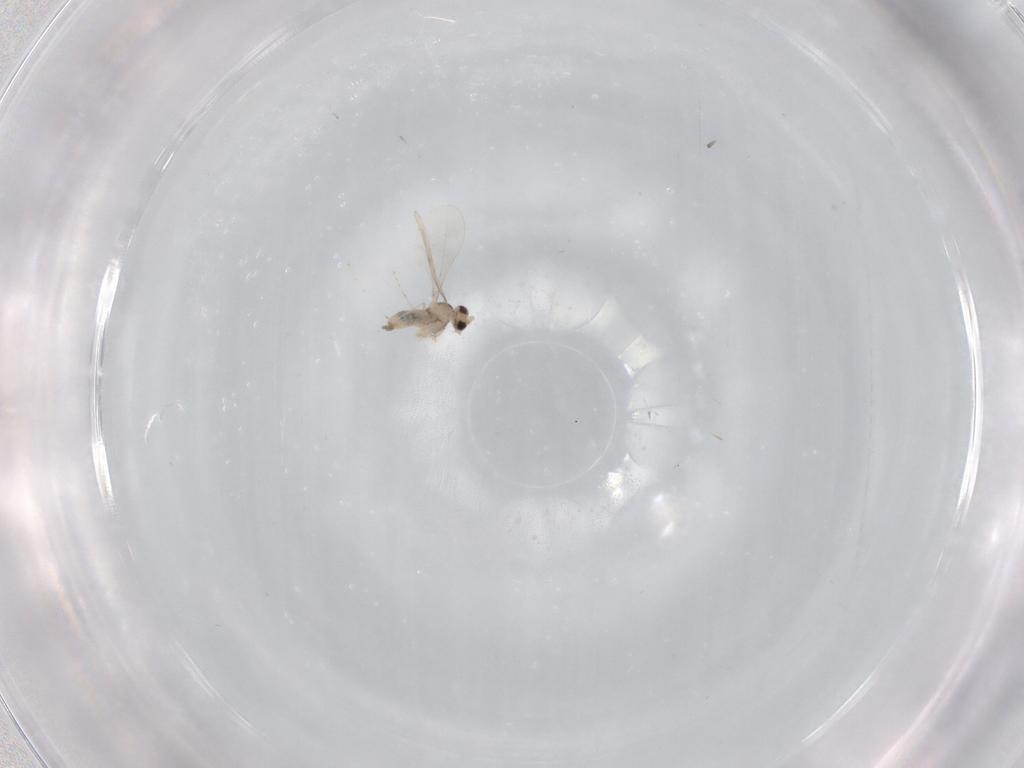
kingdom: Animalia
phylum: Arthropoda
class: Insecta
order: Diptera
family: Cecidomyiidae
